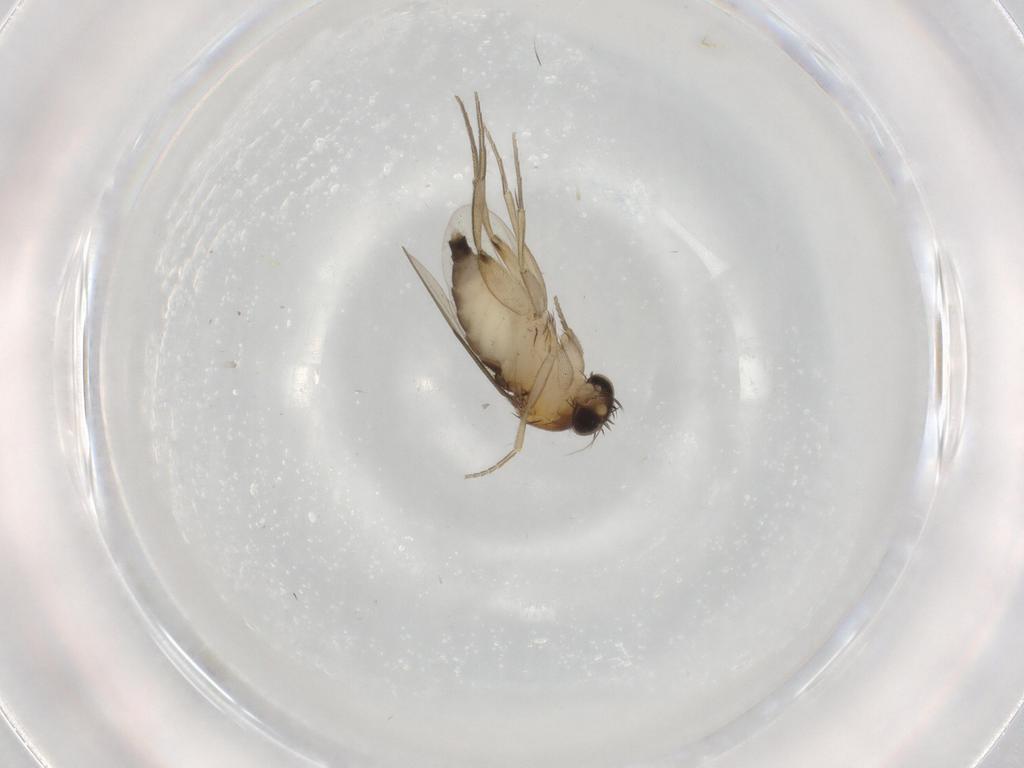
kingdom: Animalia
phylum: Arthropoda
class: Insecta
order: Diptera
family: Phoridae
